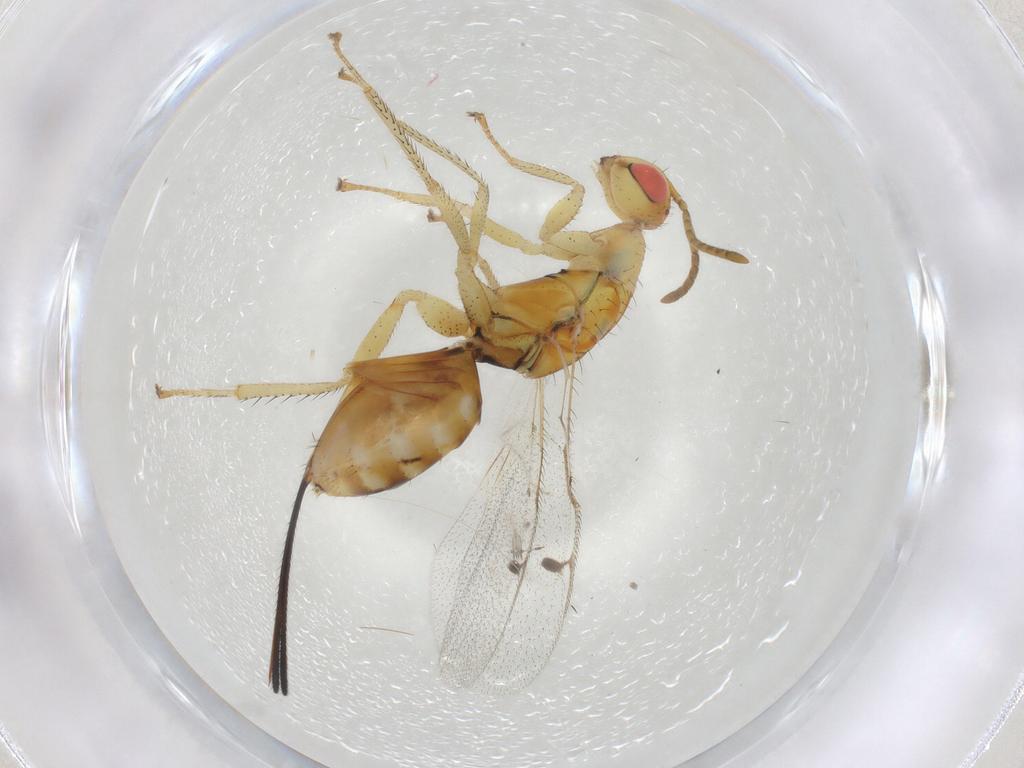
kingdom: Animalia
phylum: Arthropoda
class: Insecta
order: Hymenoptera
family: Megastigmidae
